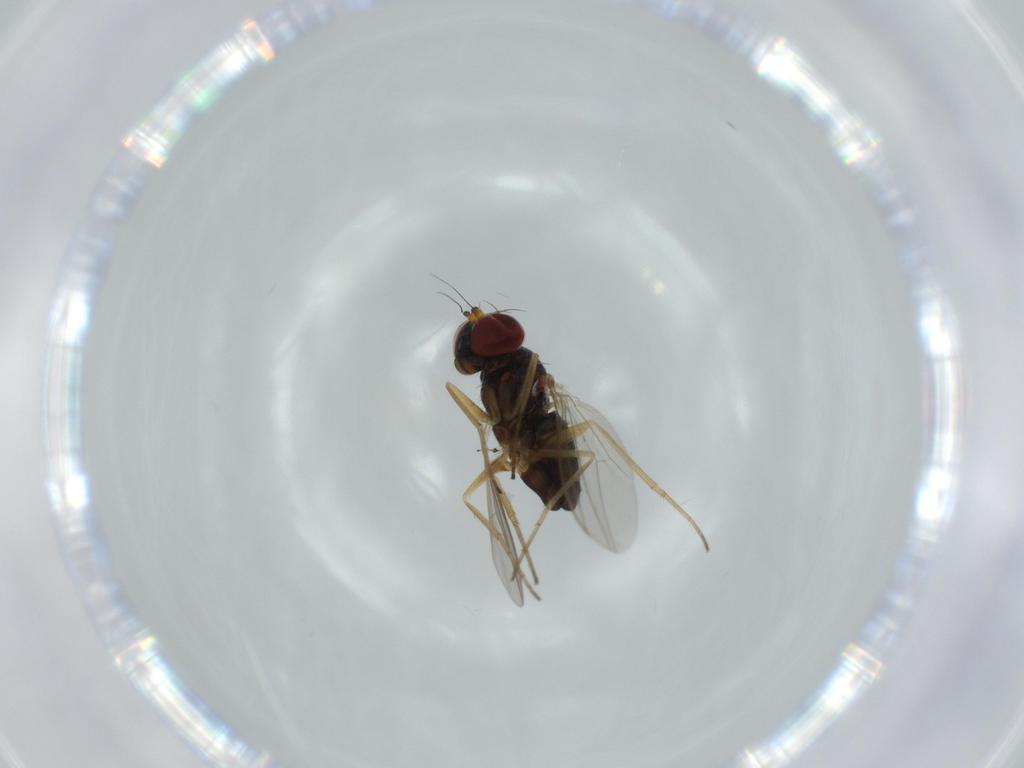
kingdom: Animalia
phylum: Arthropoda
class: Insecta
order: Diptera
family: Dolichopodidae
